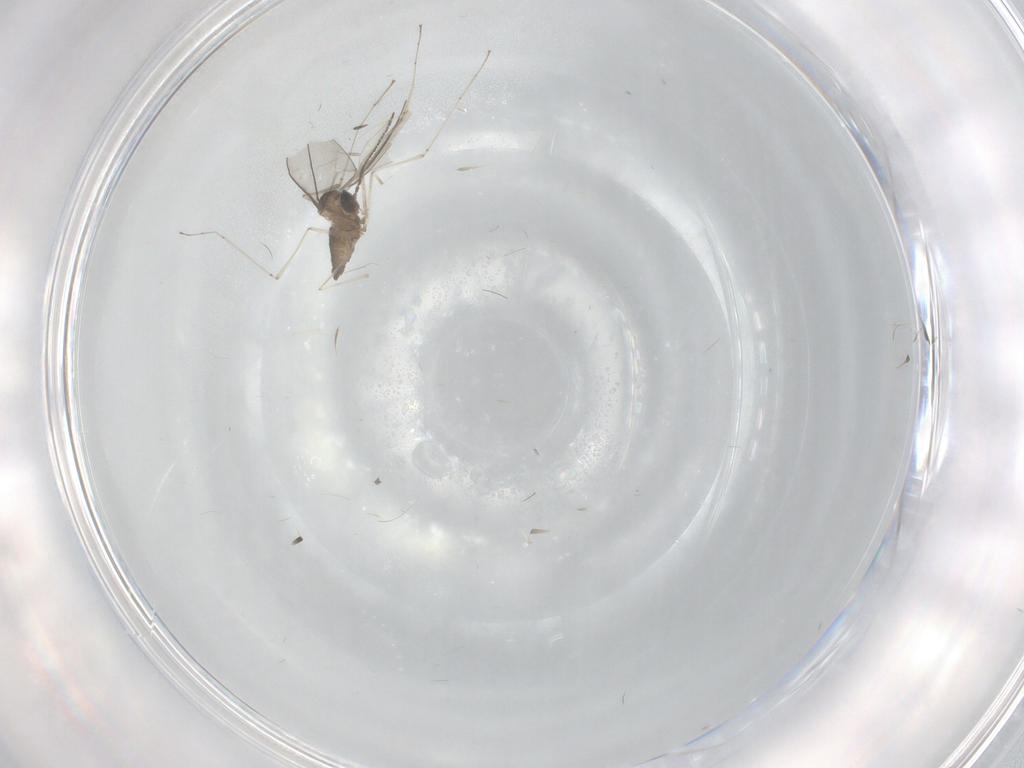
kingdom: Animalia
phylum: Arthropoda
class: Insecta
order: Diptera
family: Cecidomyiidae
